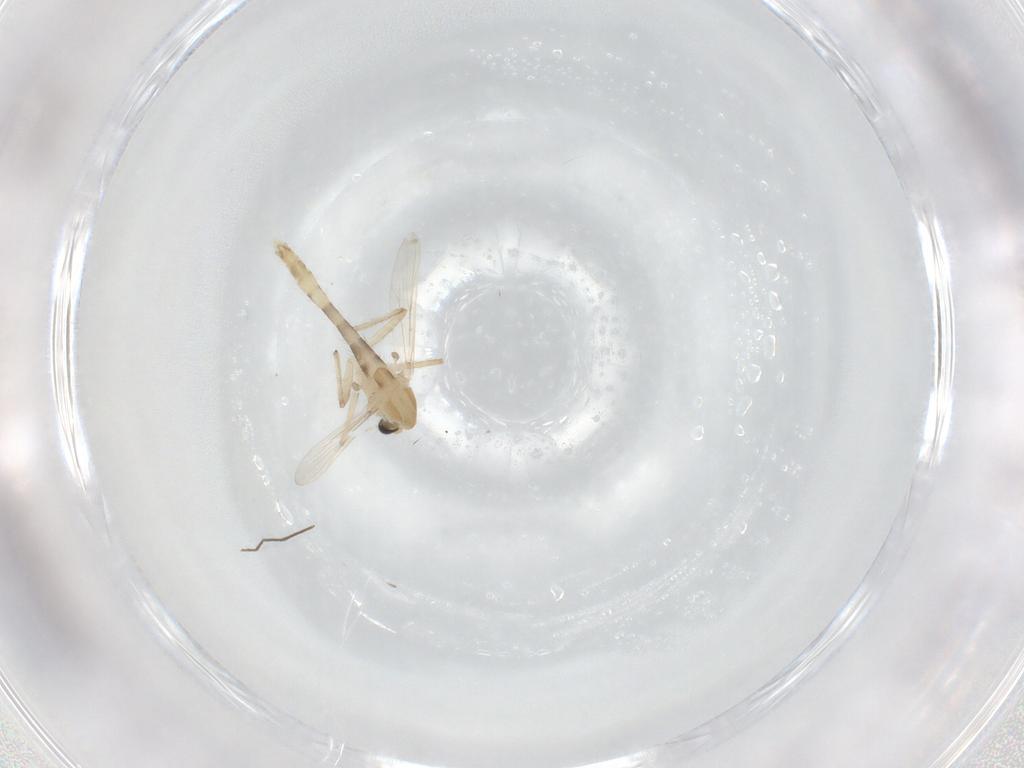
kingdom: Animalia
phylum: Arthropoda
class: Insecta
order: Diptera
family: Chironomidae
